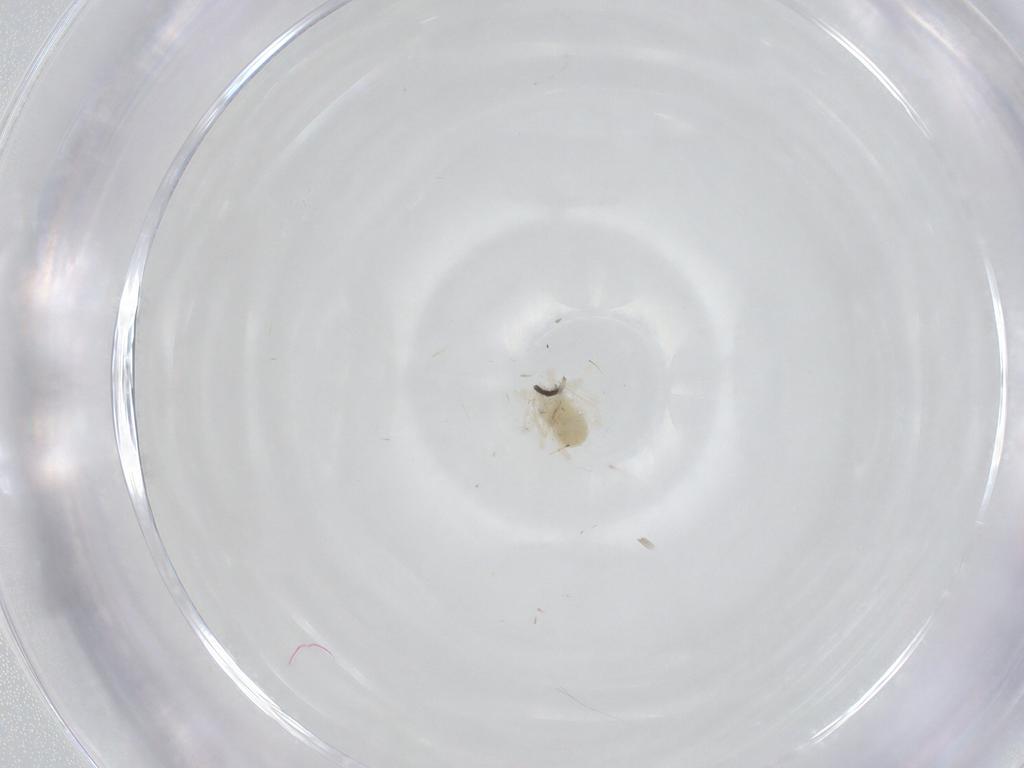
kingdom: Animalia
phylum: Arthropoda
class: Arachnida
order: Trombidiformes
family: Anystidae
